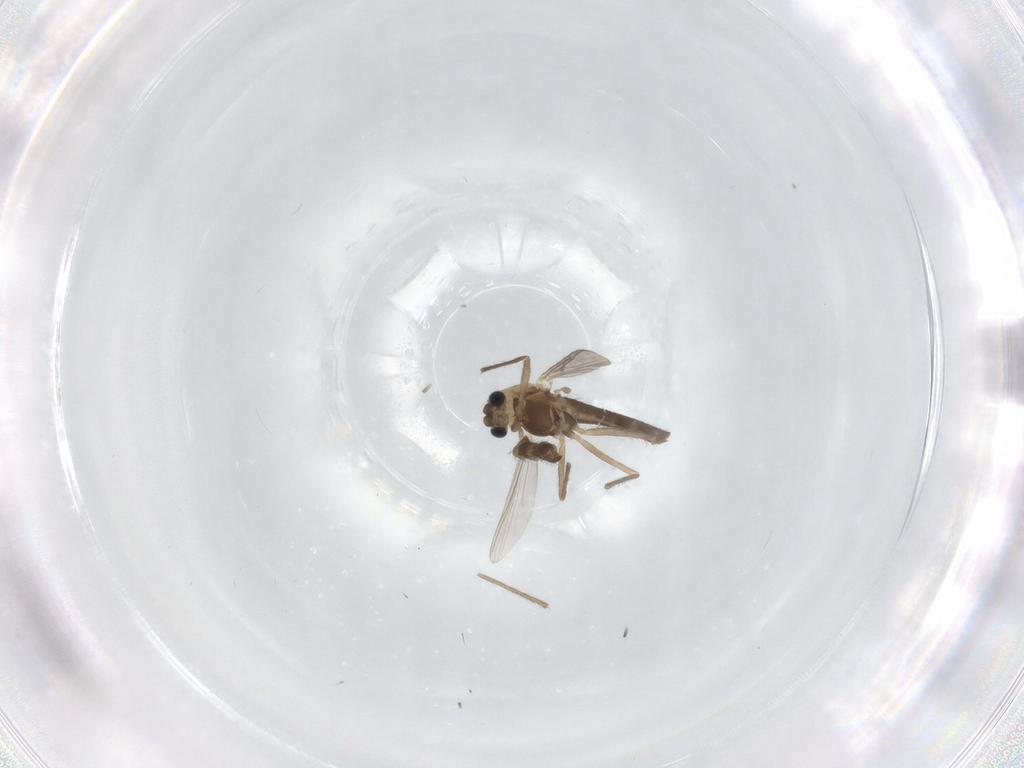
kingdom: Animalia
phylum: Arthropoda
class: Insecta
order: Diptera
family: Chironomidae
